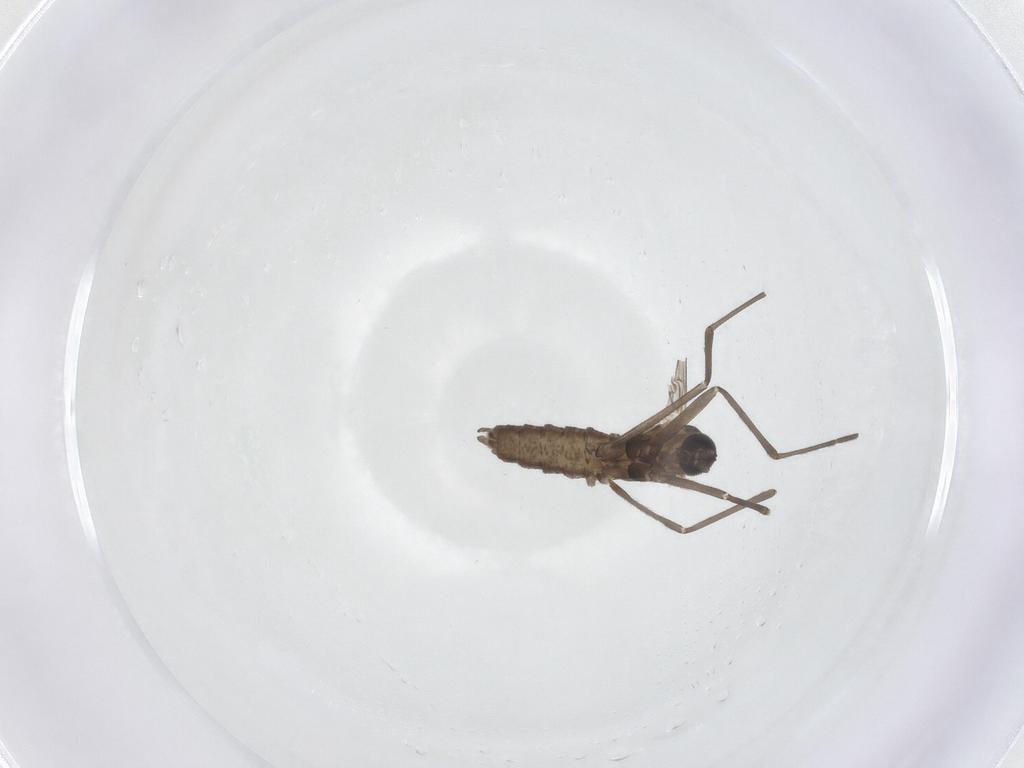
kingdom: Animalia
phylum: Arthropoda
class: Insecta
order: Diptera
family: Cecidomyiidae
